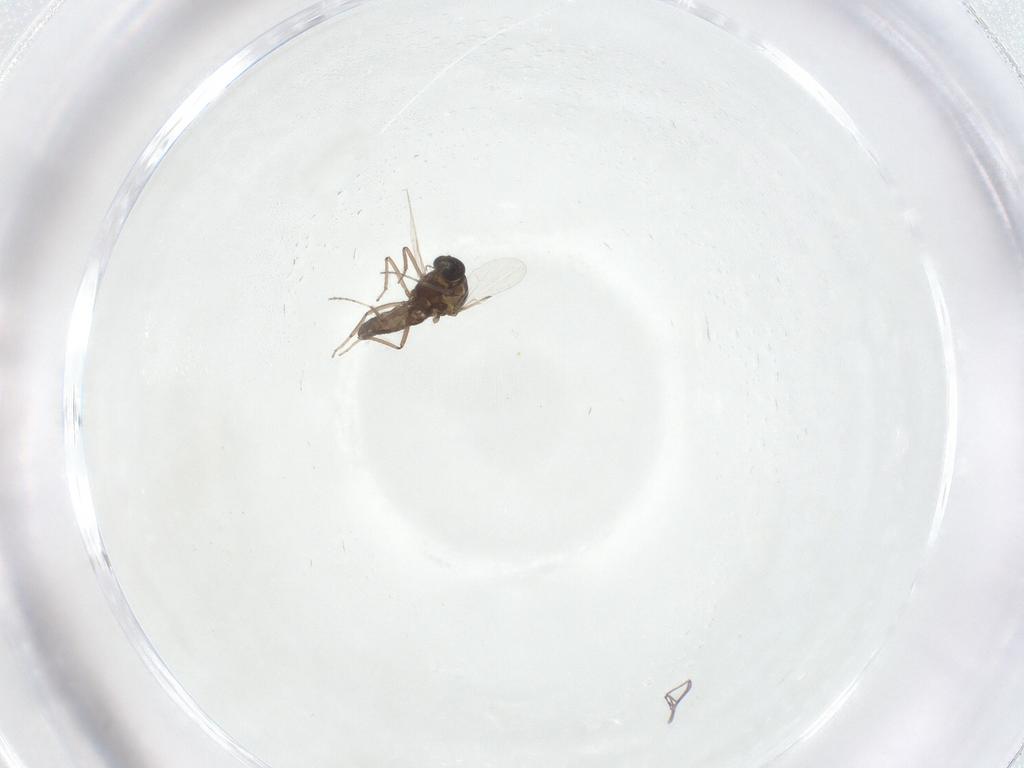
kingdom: Animalia
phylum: Arthropoda
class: Insecta
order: Diptera
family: Ceratopogonidae
